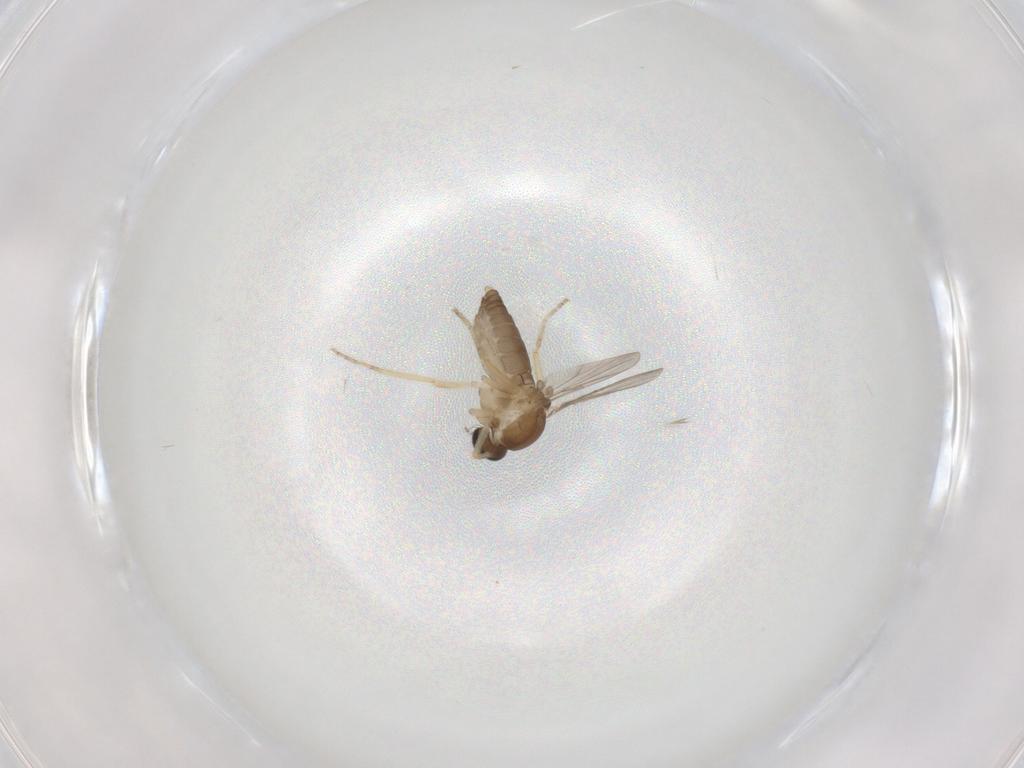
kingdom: Animalia
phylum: Arthropoda
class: Insecta
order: Diptera
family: Ceratopogonidae
